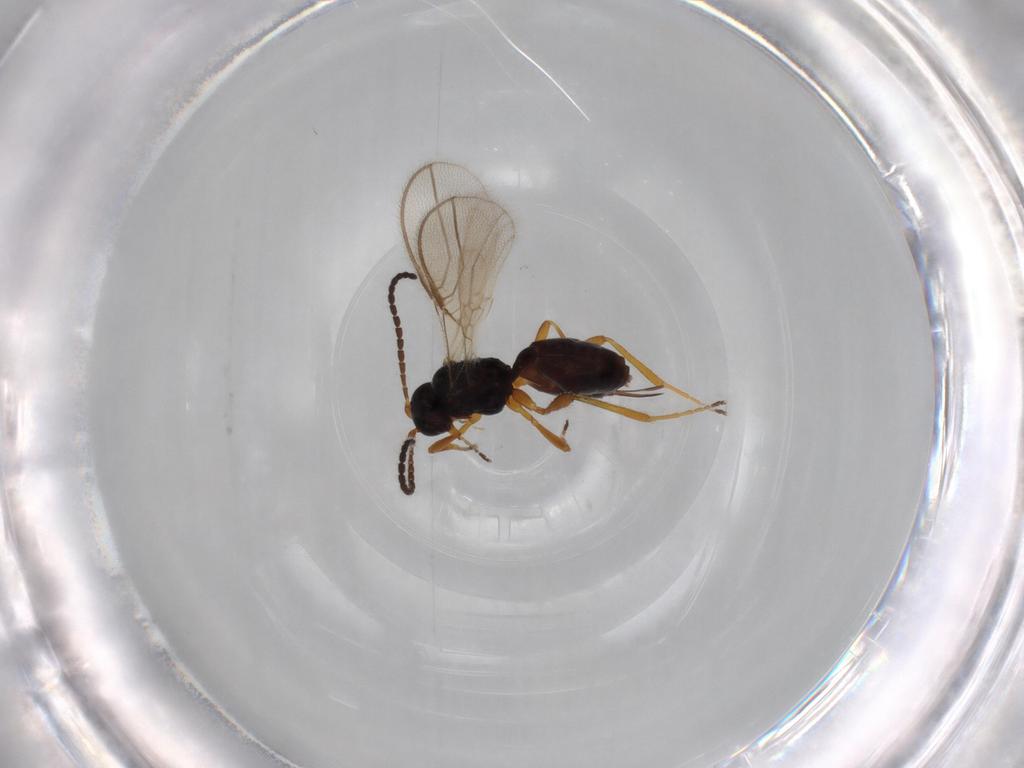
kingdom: Animalia
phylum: Arthropoda
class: Insecta
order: Hymenoptera
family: Braconidae
